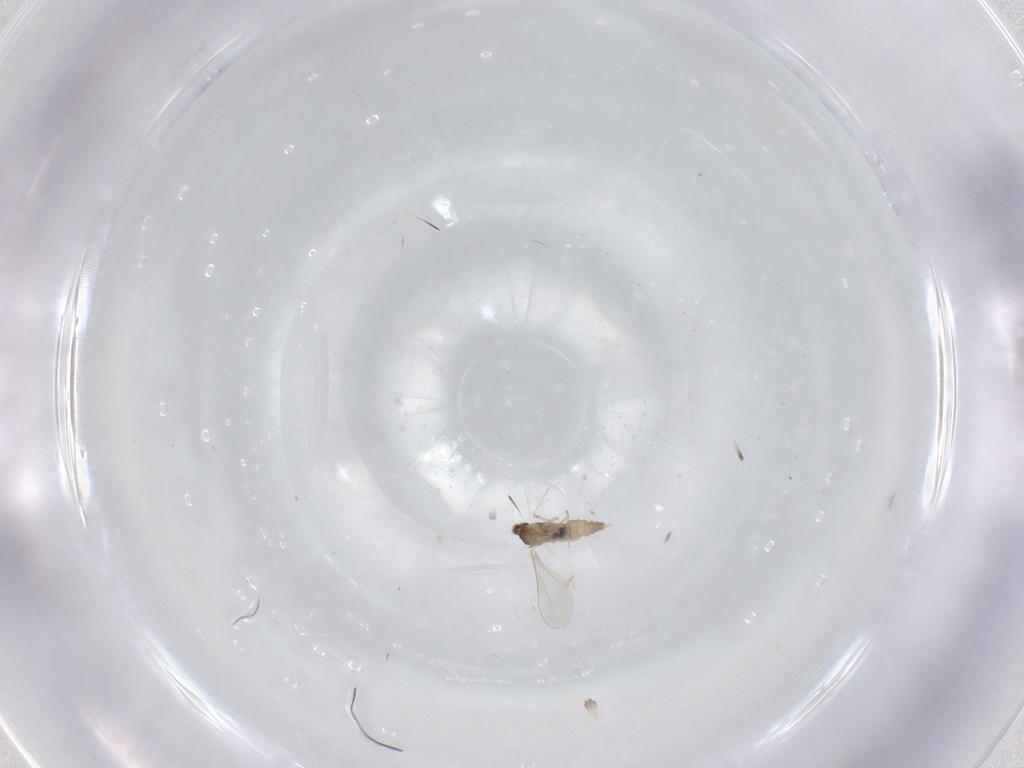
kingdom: Animalia
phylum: Arthropoda
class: Insecta
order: Diptera
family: Cecidomyiidae
